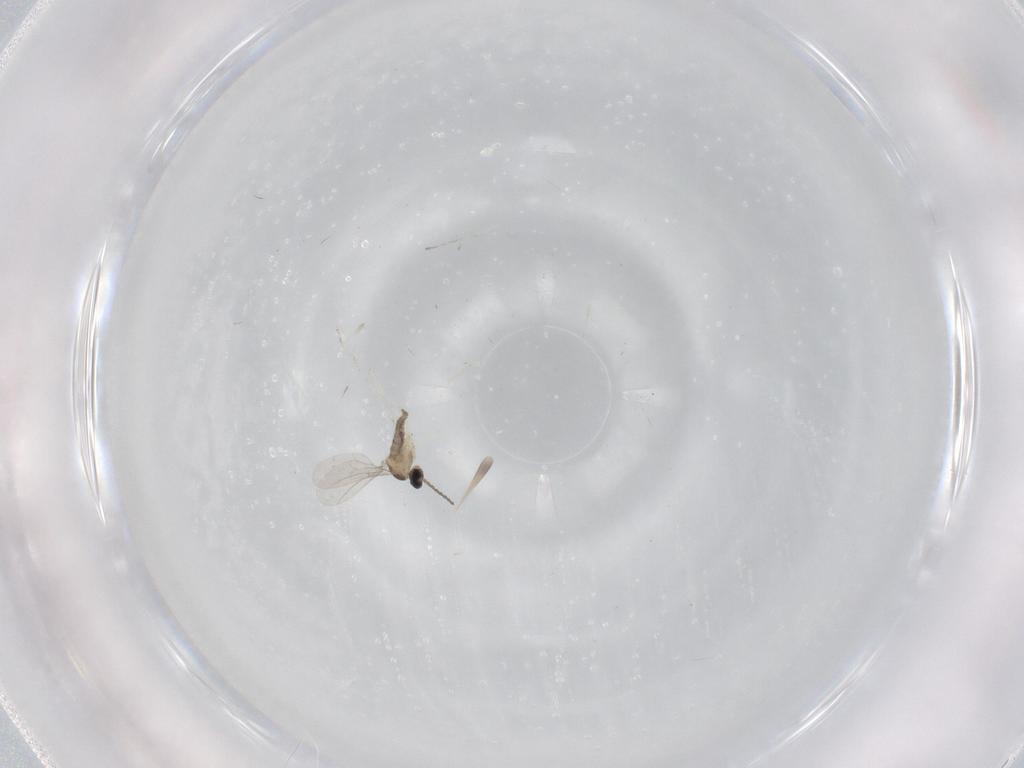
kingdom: Animalia
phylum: Arthropoda
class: Insecta
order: Diptera
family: Cecidomyiidae
